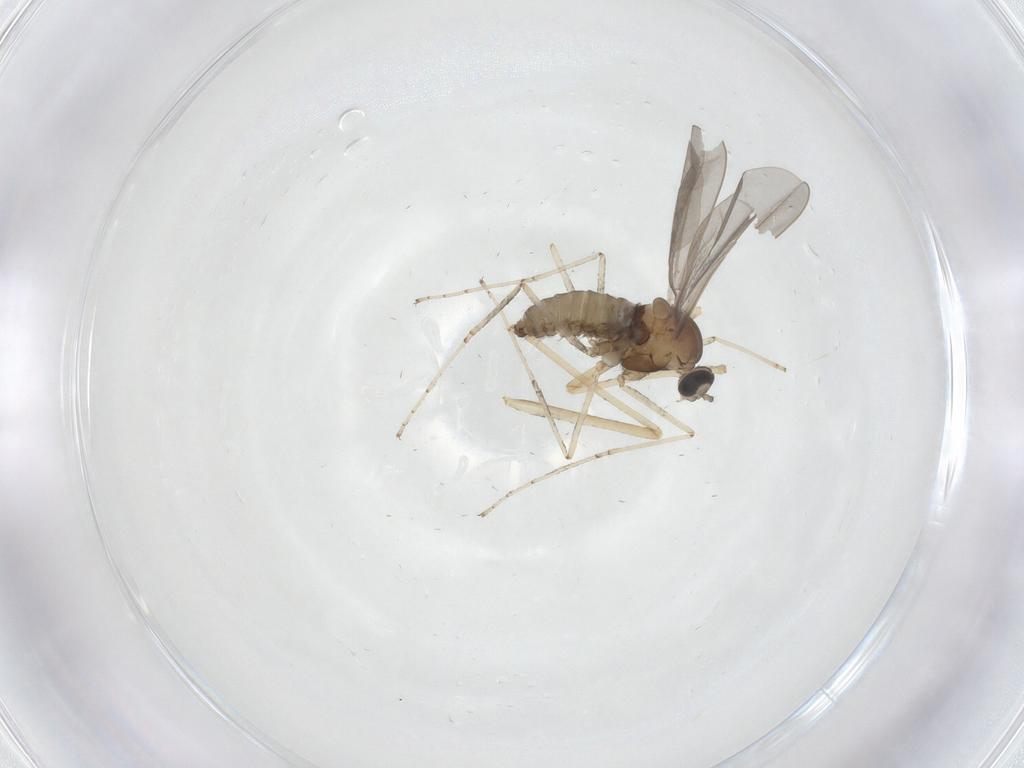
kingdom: Animalia
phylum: Arthropoda
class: Insecta
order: Diptera
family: Cecidomyiidae
